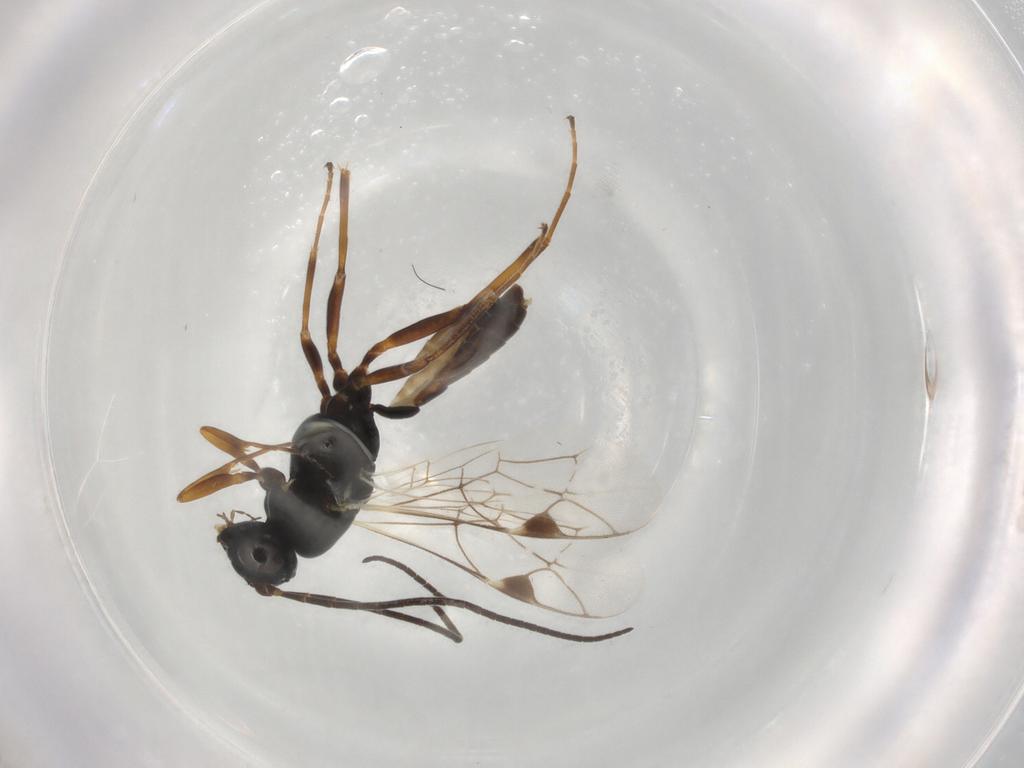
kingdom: Animalia
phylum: Arthropoda
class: Insecta
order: Hymenoptera
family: Ichneumonidae
